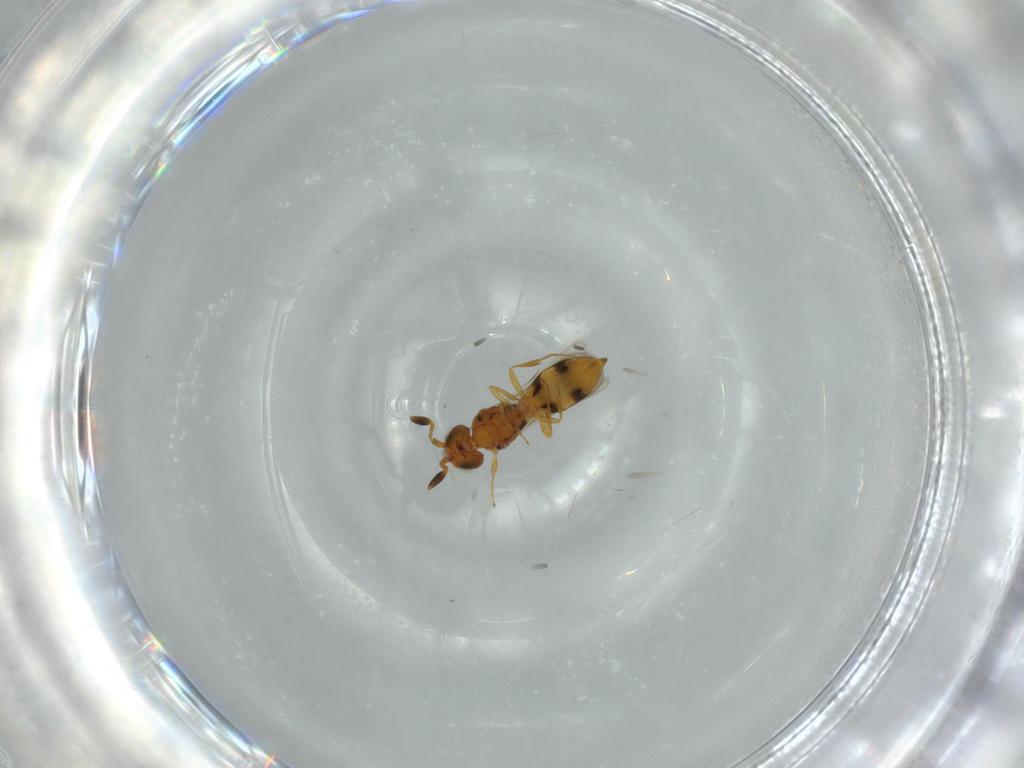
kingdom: Animalia
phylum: Arthropoda
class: Insecta
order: Hymenoptera
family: Scelionidae
